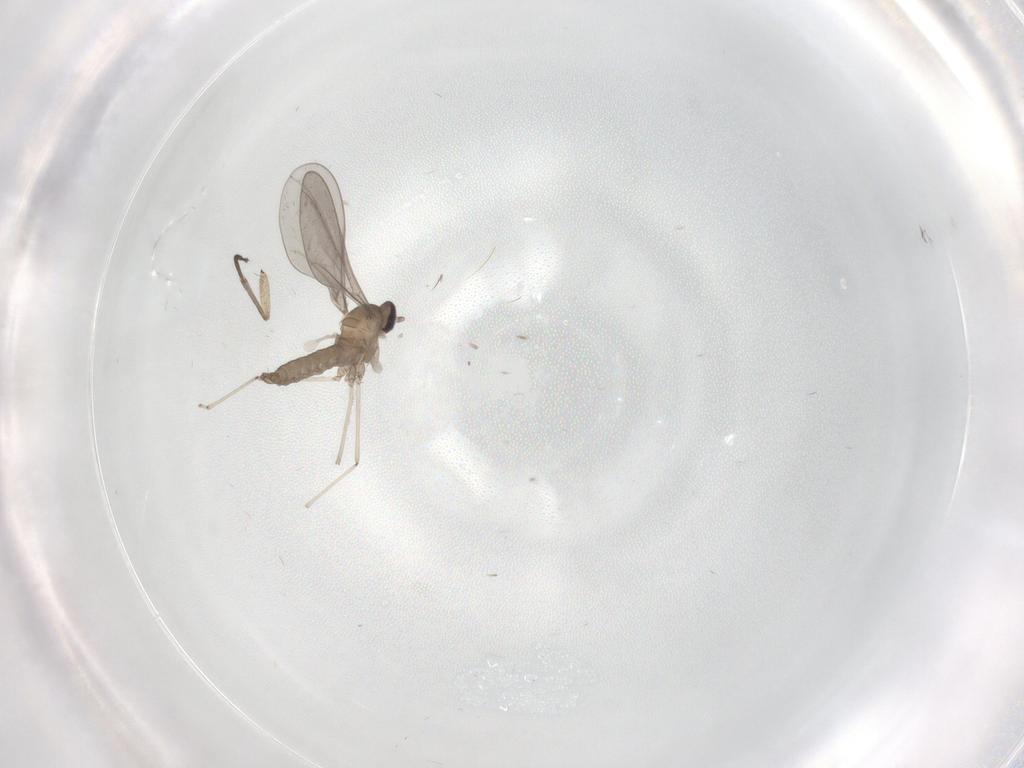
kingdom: Animalia
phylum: Arthropoda
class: Insecta
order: Diptera
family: Cecidomyiidae
